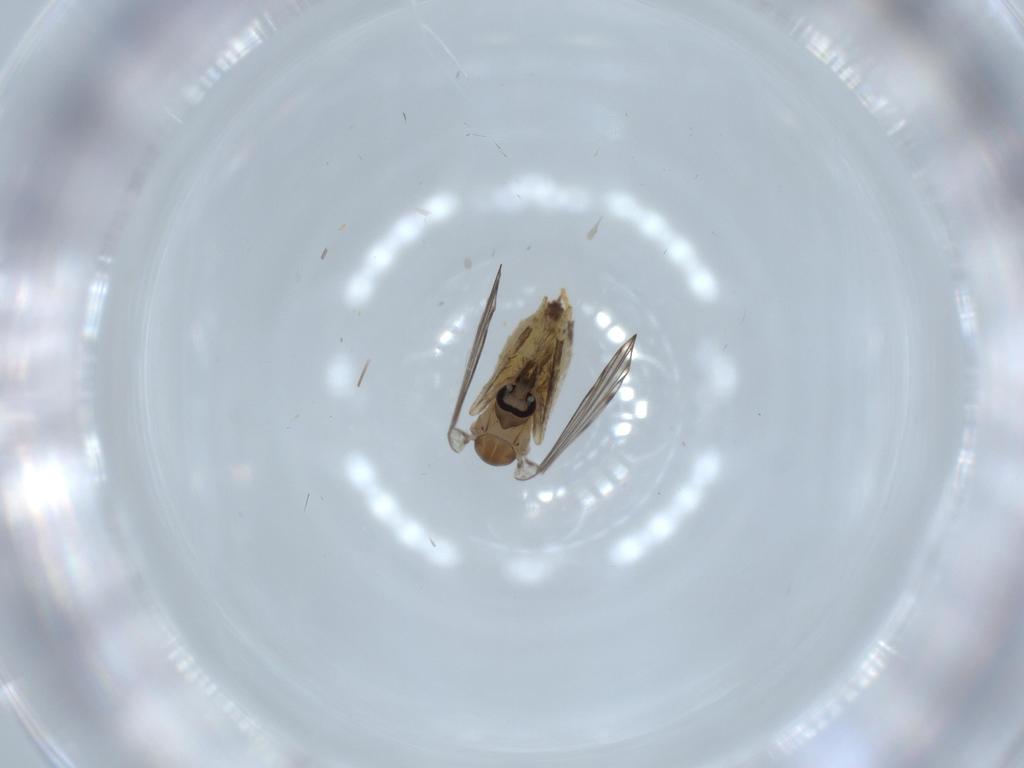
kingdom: Animalia
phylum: Arthropoda
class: Insecta
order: Diptera
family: Psychodidae
